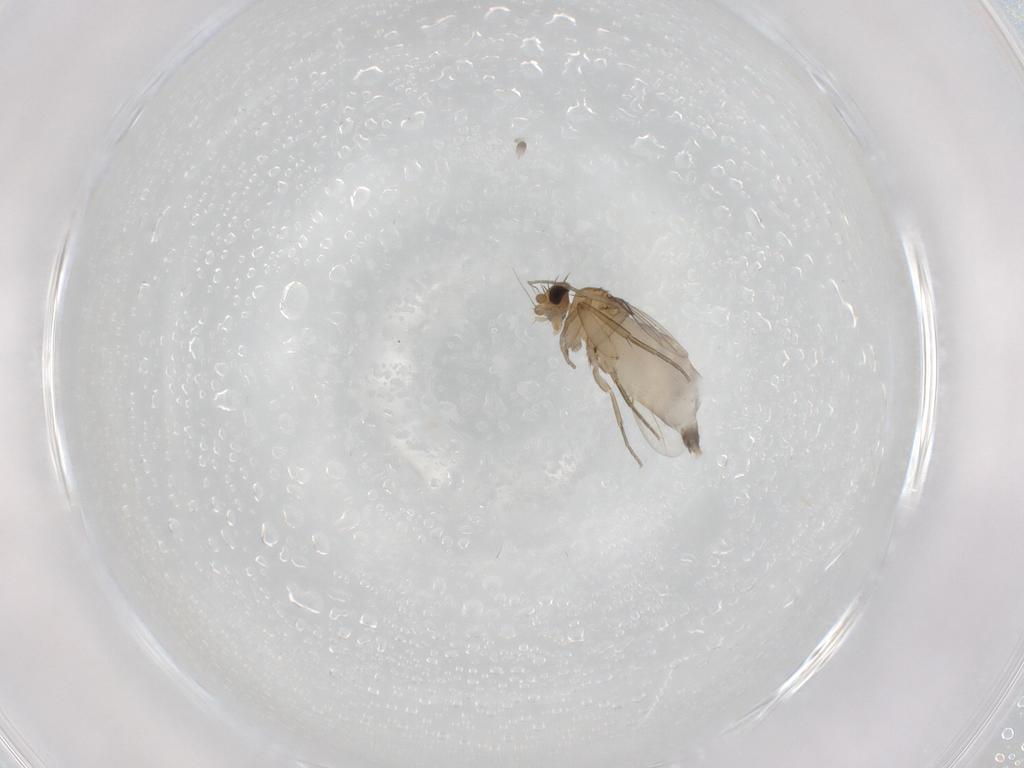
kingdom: Animalia
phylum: Arthropoda
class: Insecta
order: Diptera
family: Phoridae
